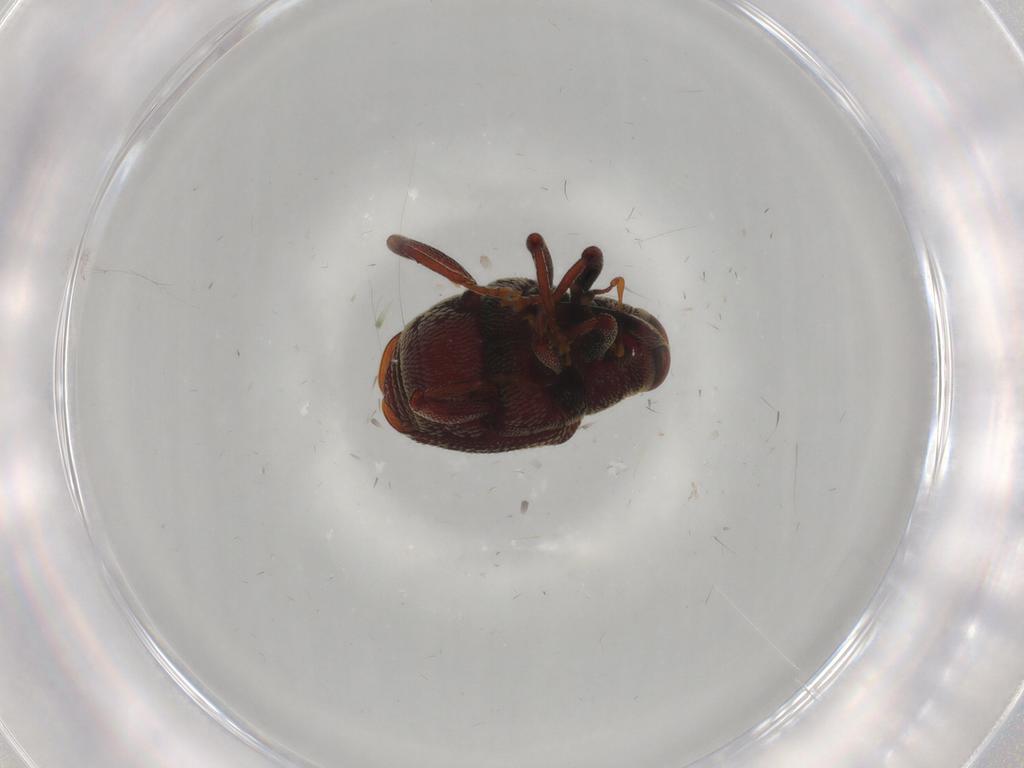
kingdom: Animalia
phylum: Arthropoda
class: Insecta
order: Coleoptera
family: Curculionidae
